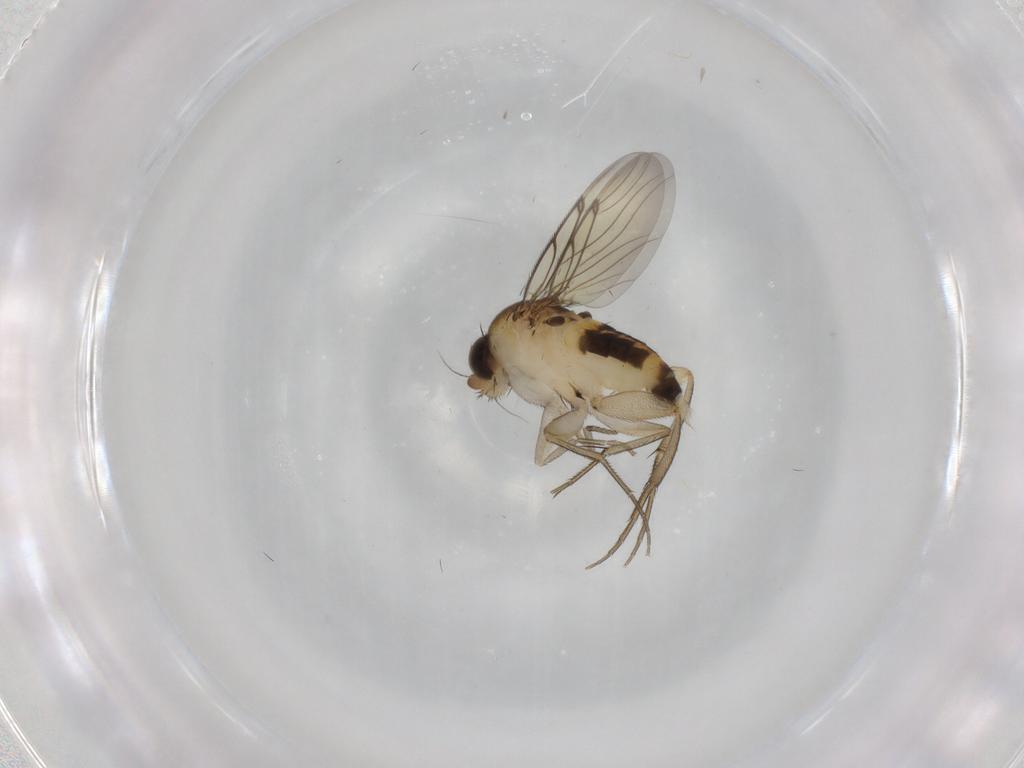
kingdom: Animalia
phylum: Arthropoda
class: Insecta
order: Diptera
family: Cecidomyiidae
